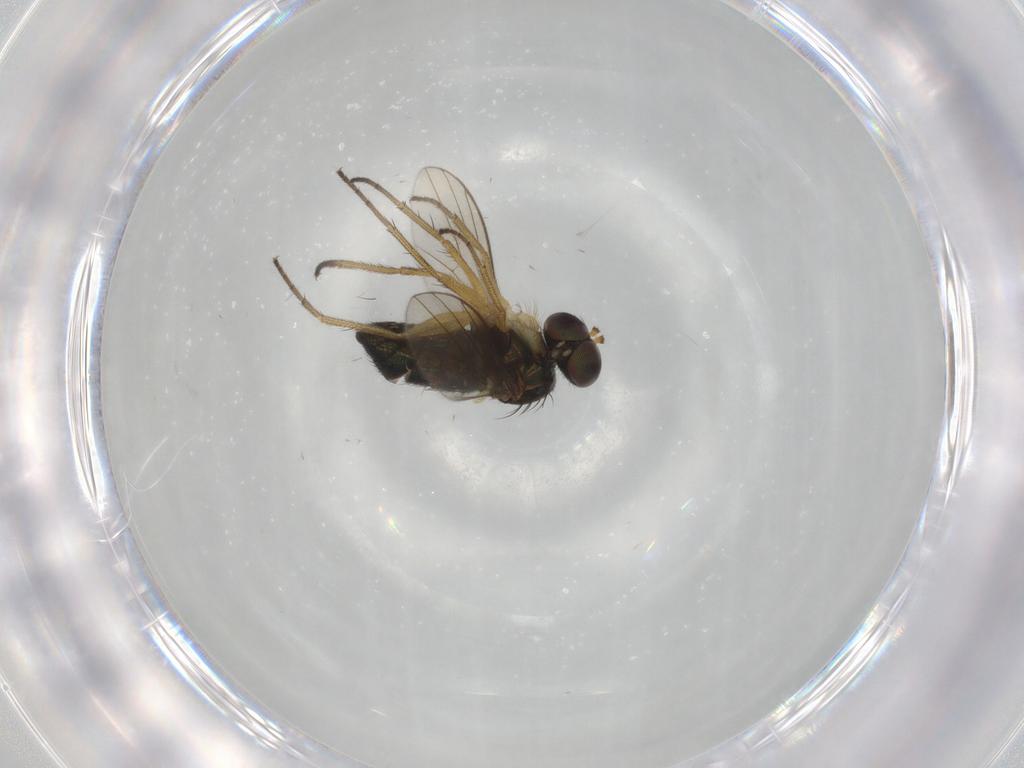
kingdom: Animalia
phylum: Arthropoda
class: Insecta
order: Diptera
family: Dolichopodidae
